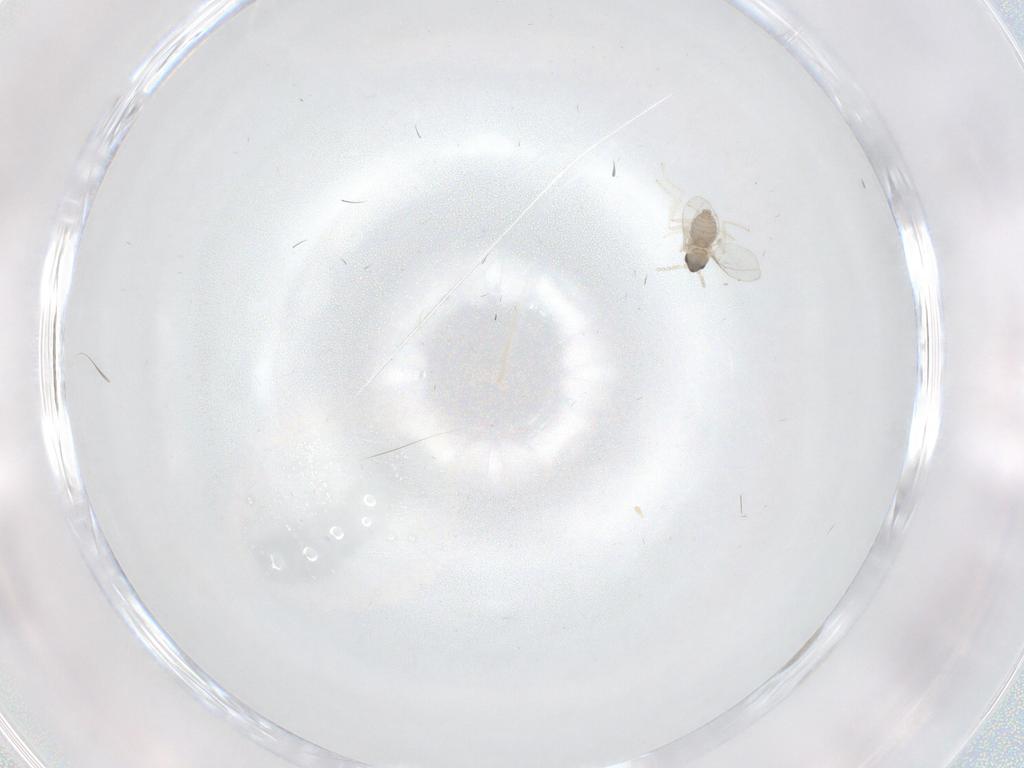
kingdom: Animalia
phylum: Arthropoda
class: Insecta
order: Diptera
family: Cecidomyiidae
